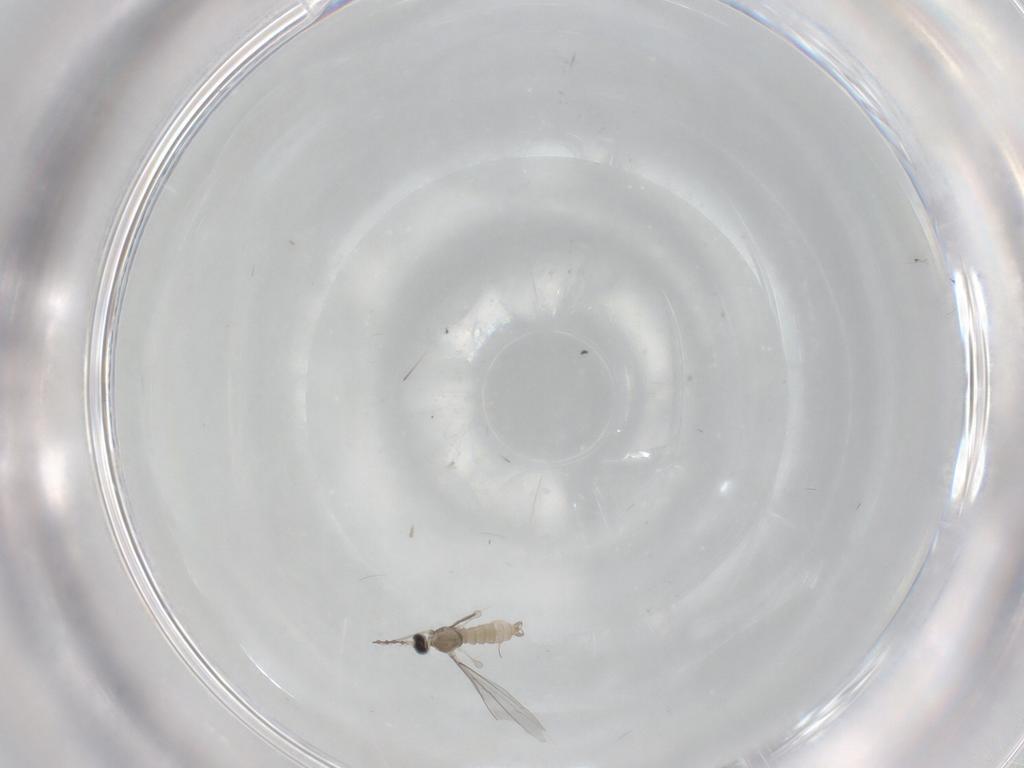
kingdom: Animalia
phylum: Arthropoda
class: Insecta
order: Diptera
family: Cecidomyiidae
